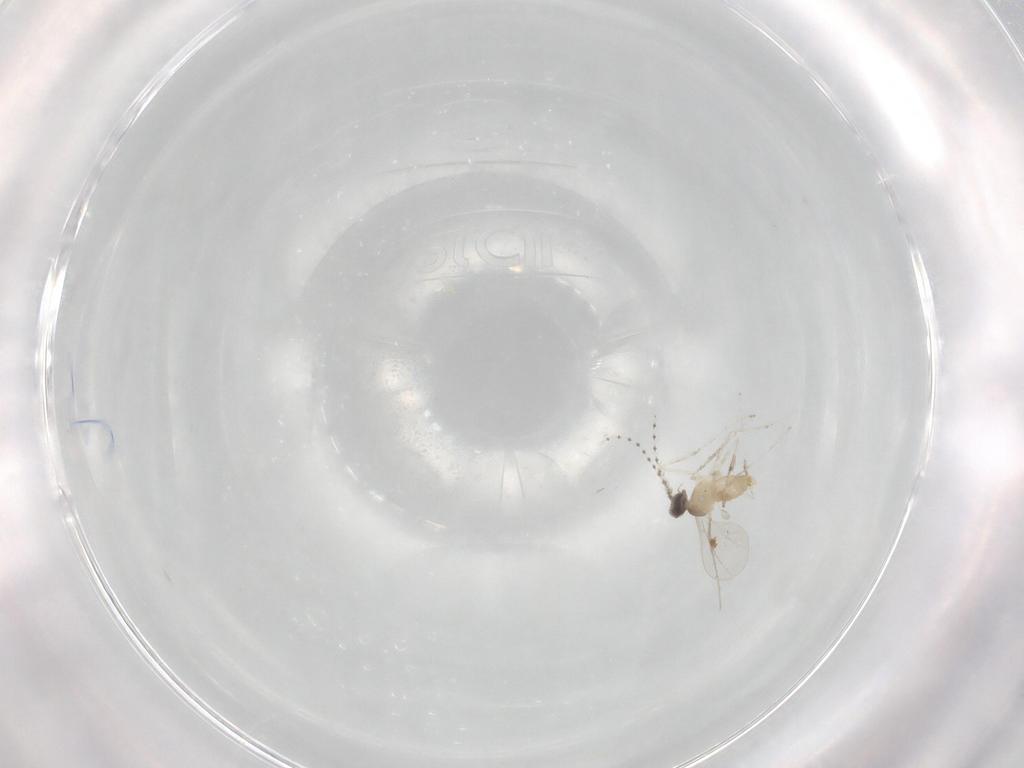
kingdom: Animalia
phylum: Arthropoda
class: Insecta
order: Diptera
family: Cecidomyiidae
